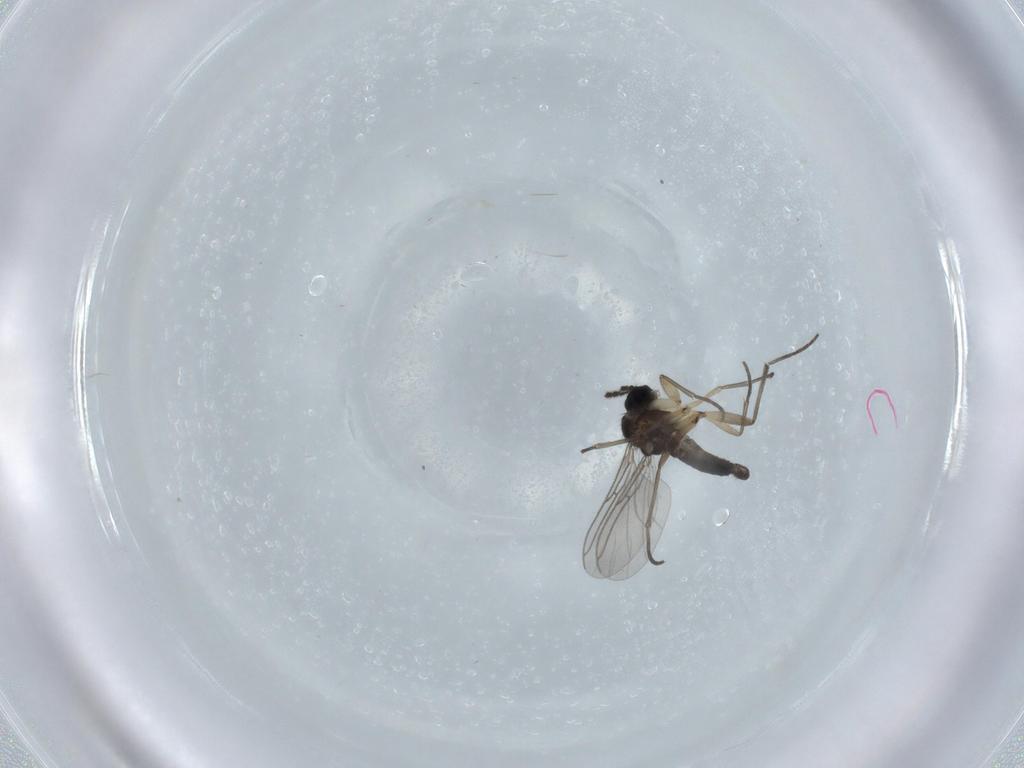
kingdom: Animalia
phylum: Arthropoda
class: Insecta
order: Diptera
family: Sciaridae
